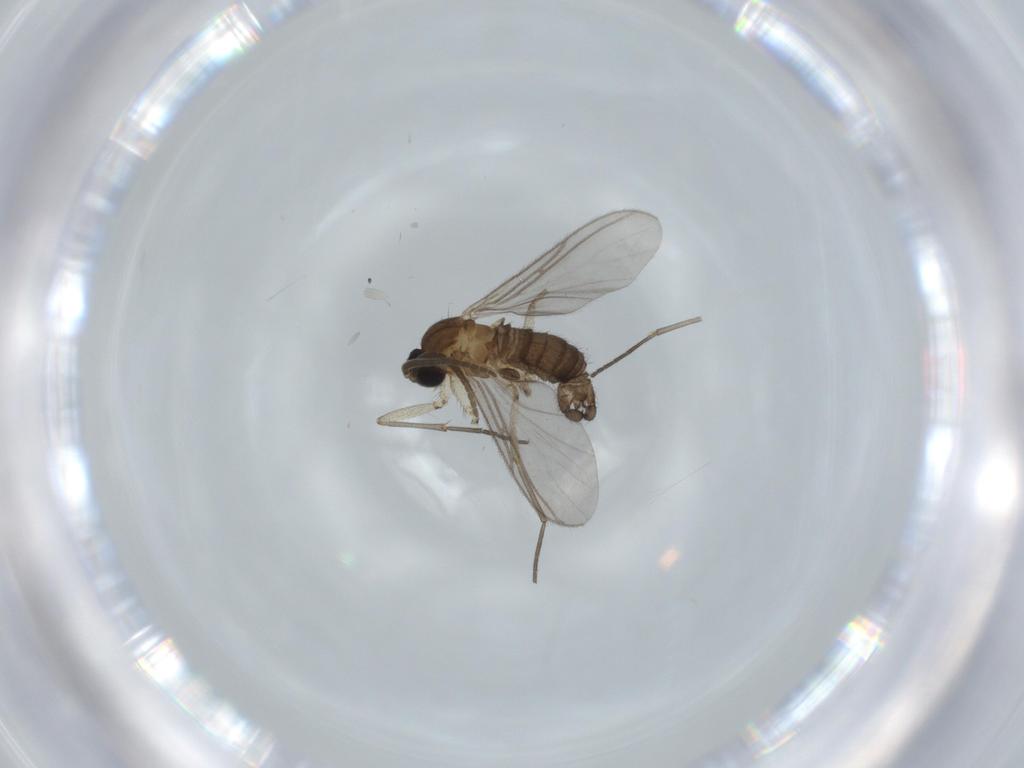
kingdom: Animalia
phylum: Arthropoda
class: Insecta
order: Diptera
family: Sciaridae
